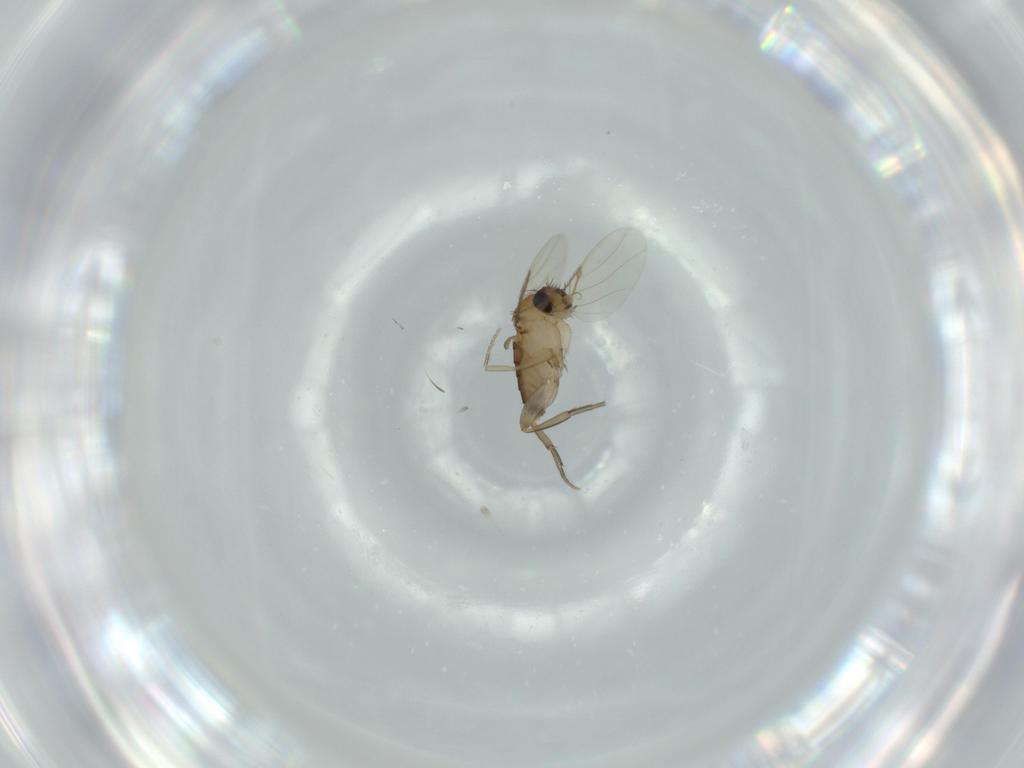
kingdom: Animalia
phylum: Arthropoda
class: Insecta
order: Diptera
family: Phoridae
